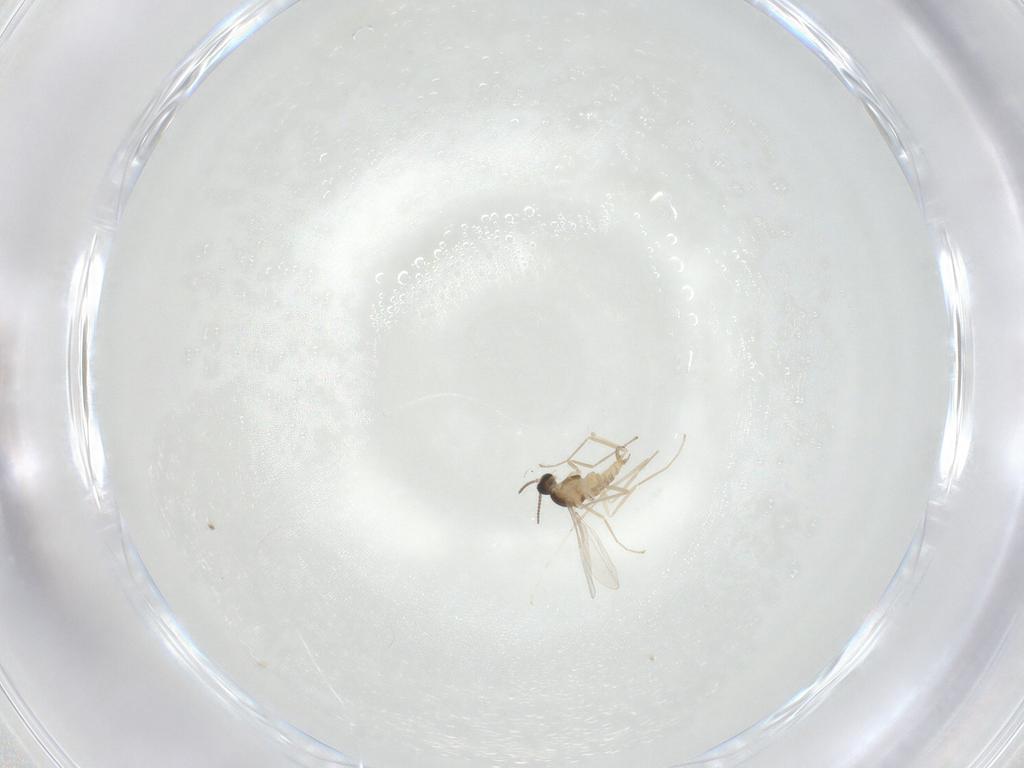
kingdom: Animalia
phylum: Arthropoda
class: Insecta
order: Diptera
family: Cecidomyiidae
